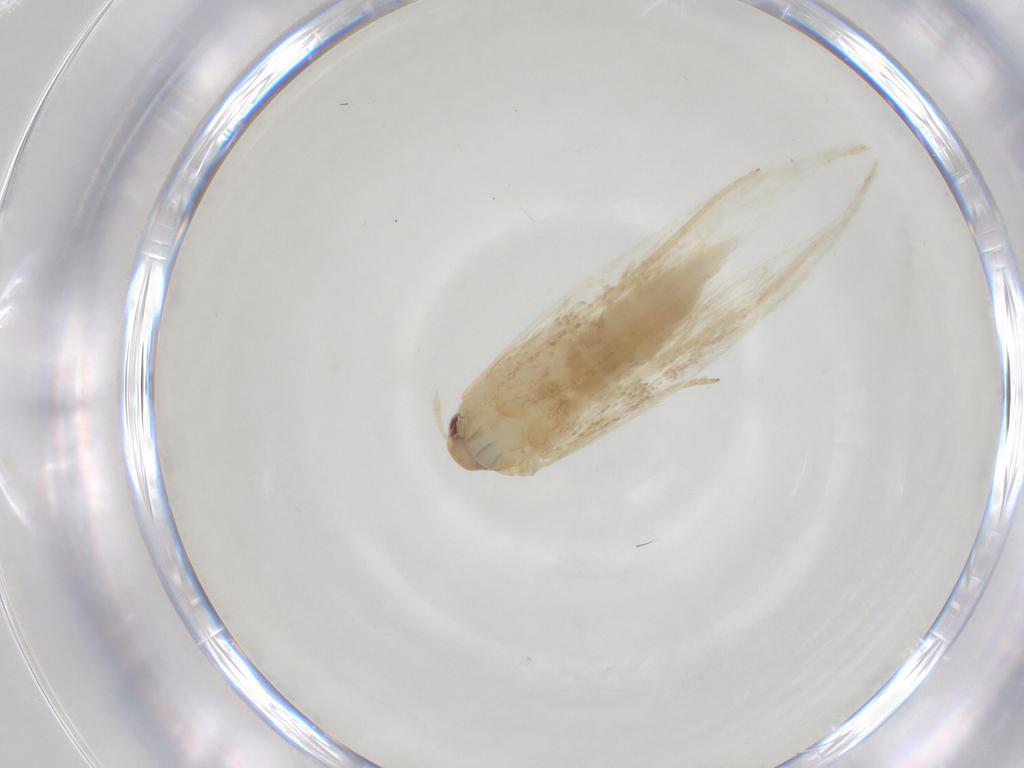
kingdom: Animalia
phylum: Arthropoda
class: Insecta
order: Lepidoptera
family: Cosmopterigidae
